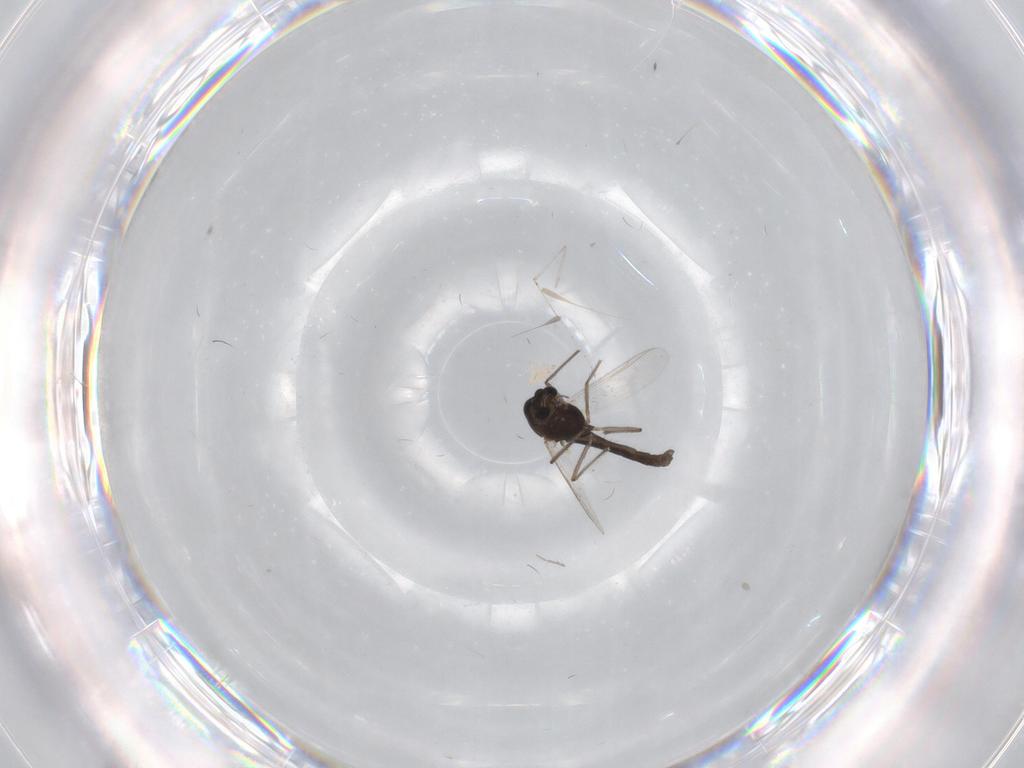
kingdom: Animalia
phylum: Arthropoda
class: Insecta
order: Diptera
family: Chironomidae
